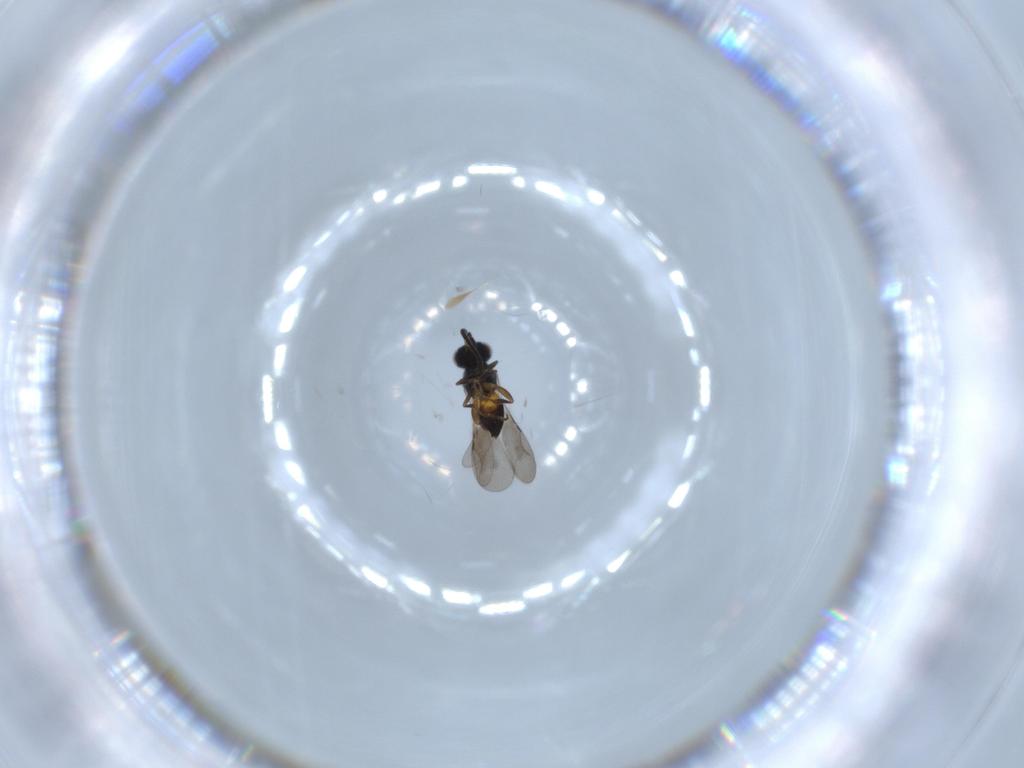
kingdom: Animalia
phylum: Arthropoda
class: Insecta
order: Hymenoptera
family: Ceraphronidae
